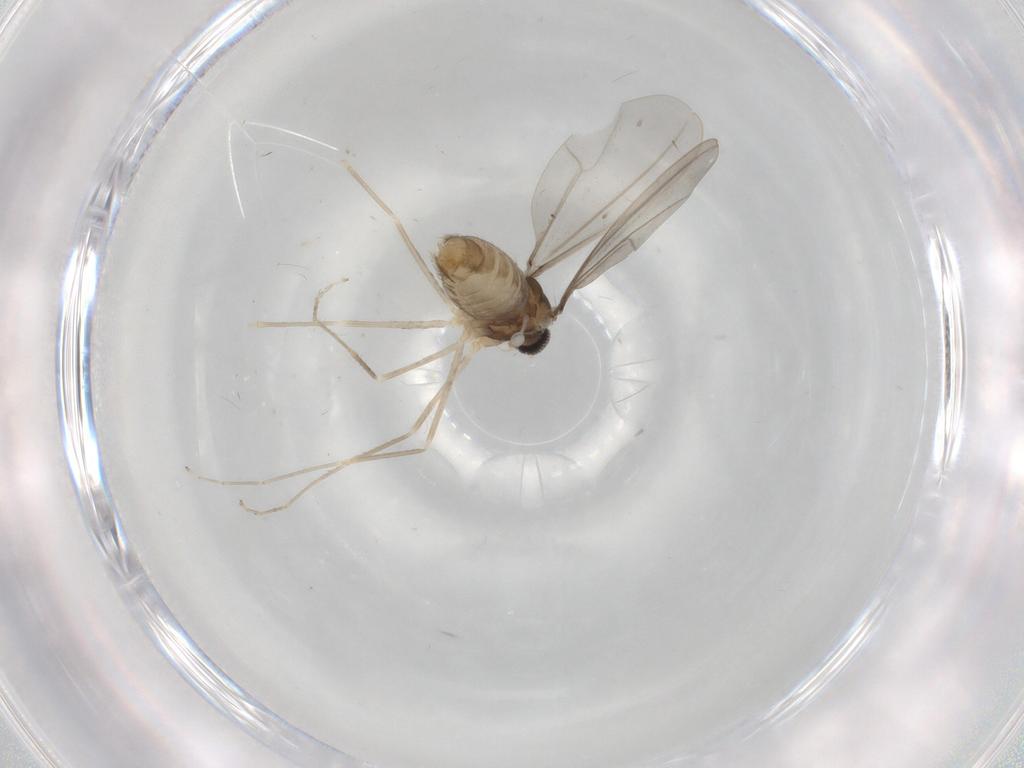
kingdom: Animalia
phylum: Arthropoda
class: Insecta
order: Diptera
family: Cecidomyiidae
